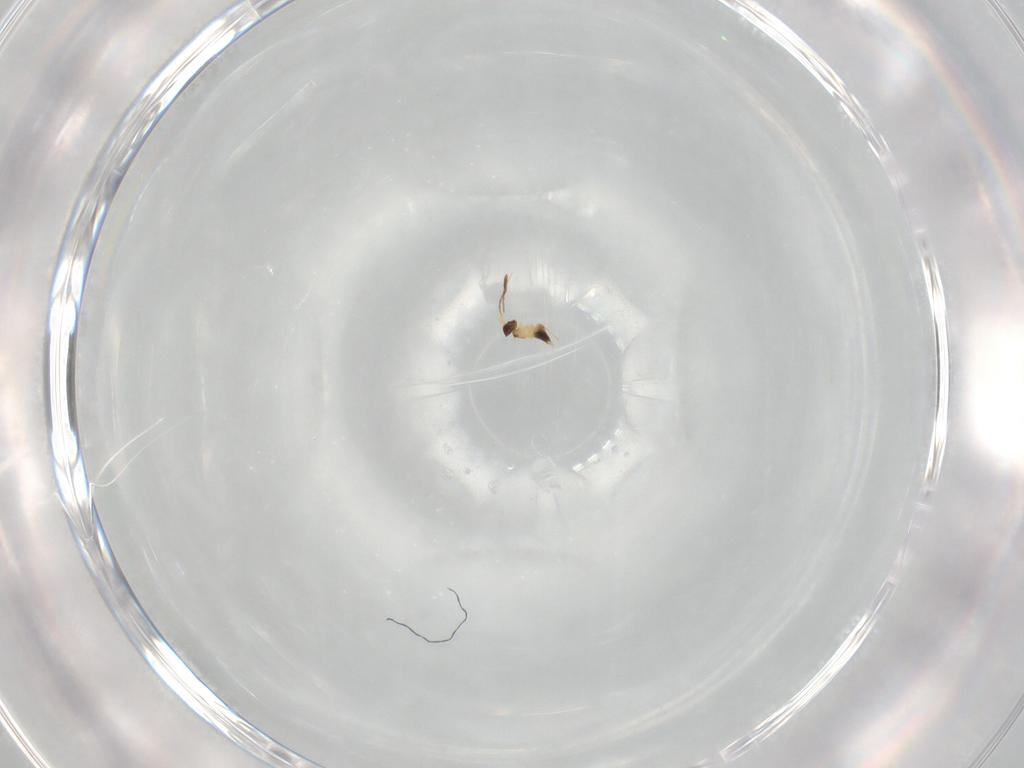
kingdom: Animalia
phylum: Arthropoda
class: Insecta
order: Hymenoptera
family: Mymaridae
